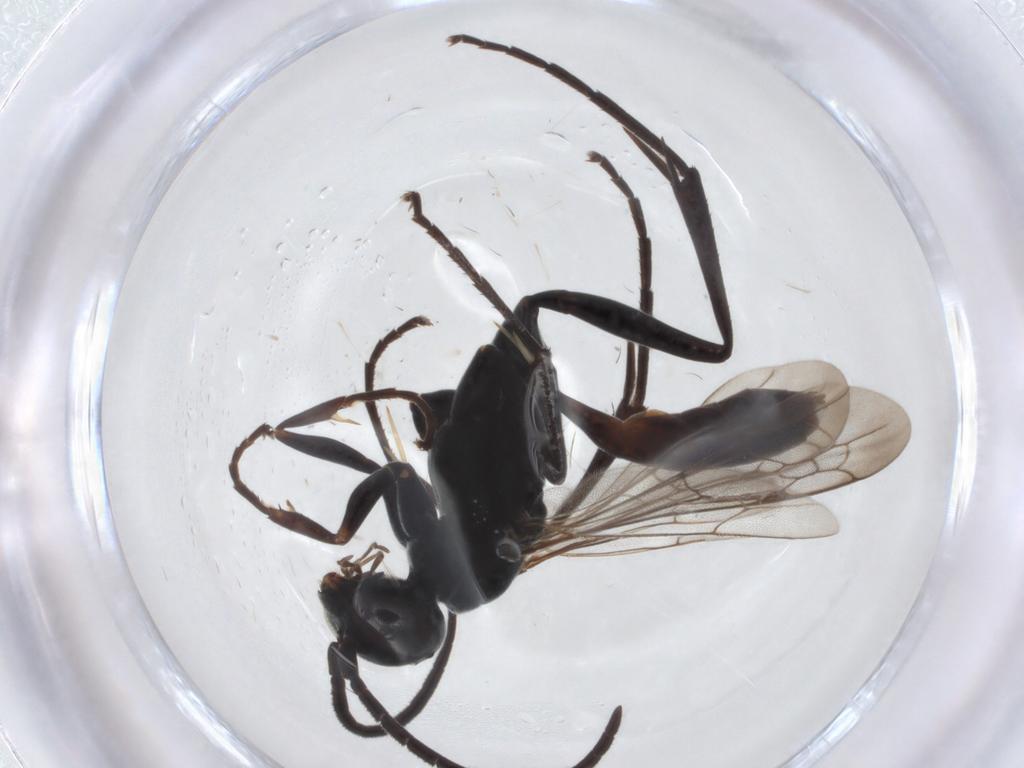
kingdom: Animalia
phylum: Arthropoda
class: Insecta
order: Hymenoptera
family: Pompilidae
